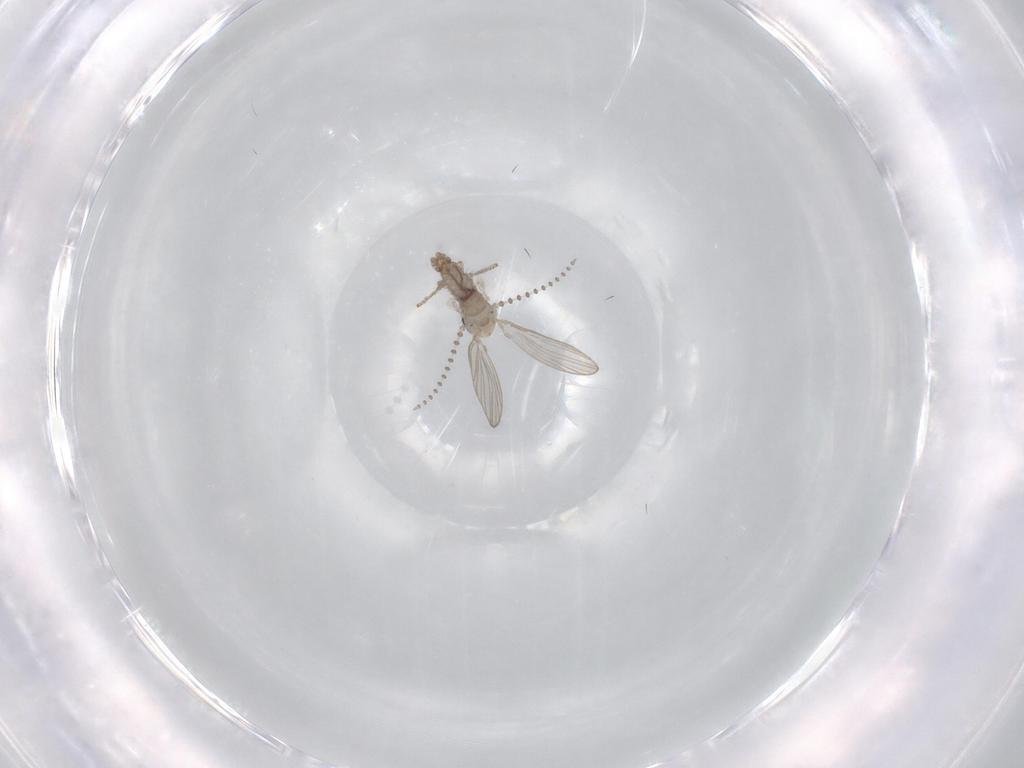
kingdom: Animalia
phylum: Arthropoda
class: Insecta
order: Diptera
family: Psychodidae
